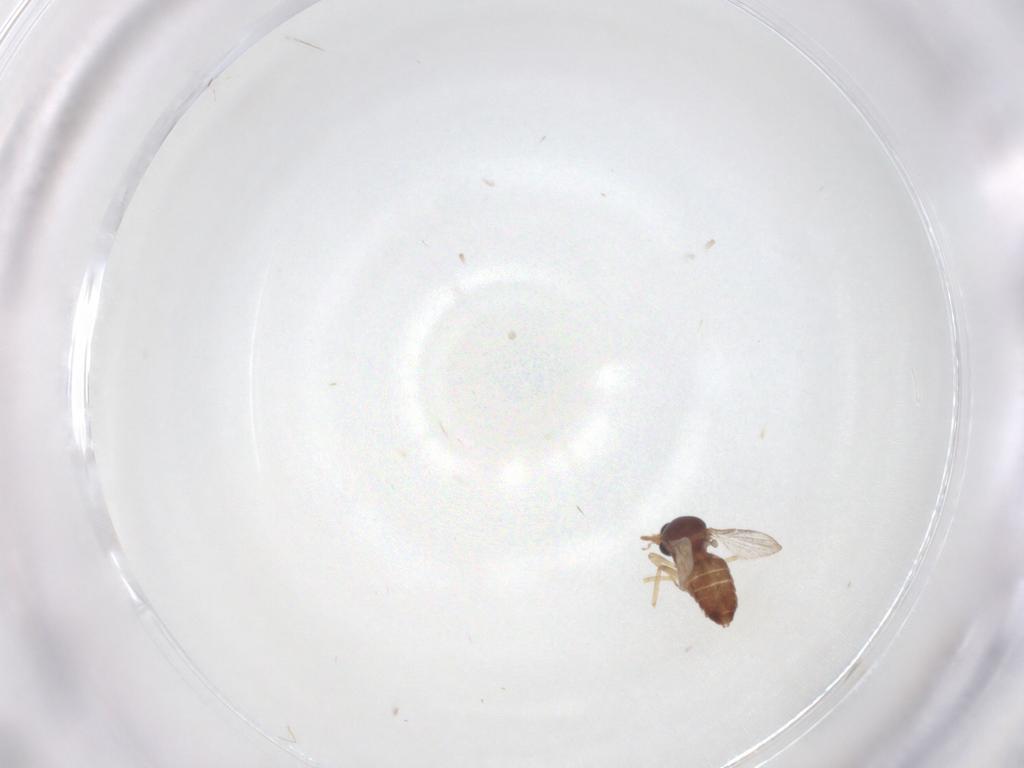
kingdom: Animalia
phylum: Arthropoda
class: Insecta
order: Diptera
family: Ceratopogonidae
